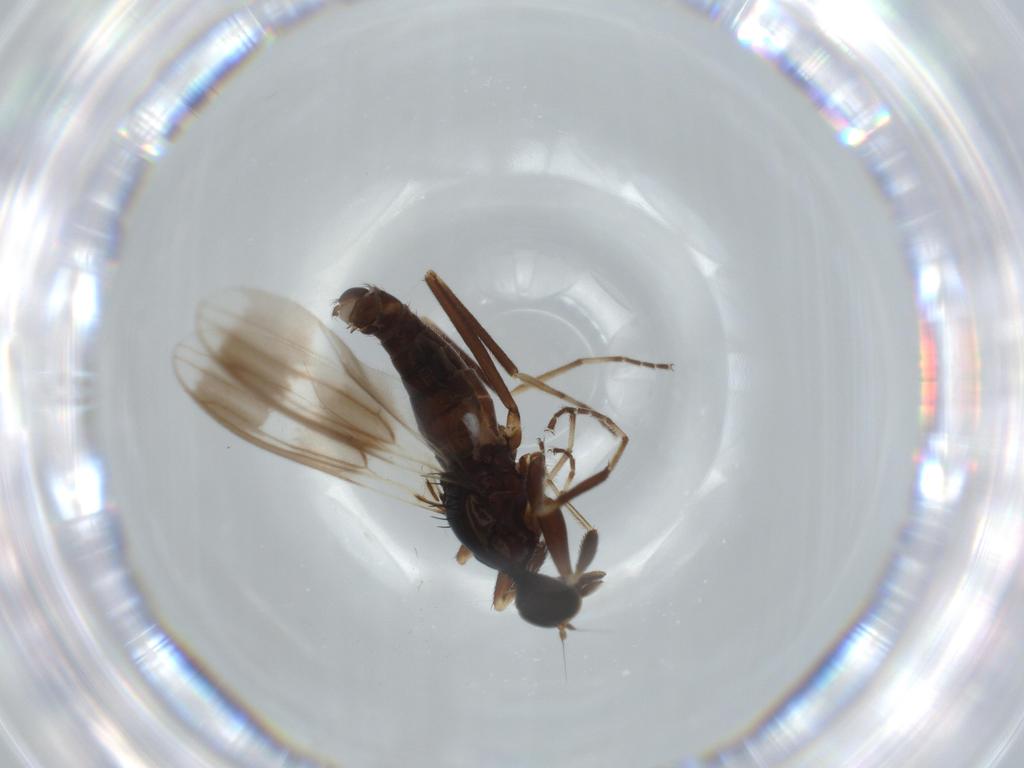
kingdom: Animalia
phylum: Arthropoda
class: Insecta
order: Diptera
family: Hybotidae
